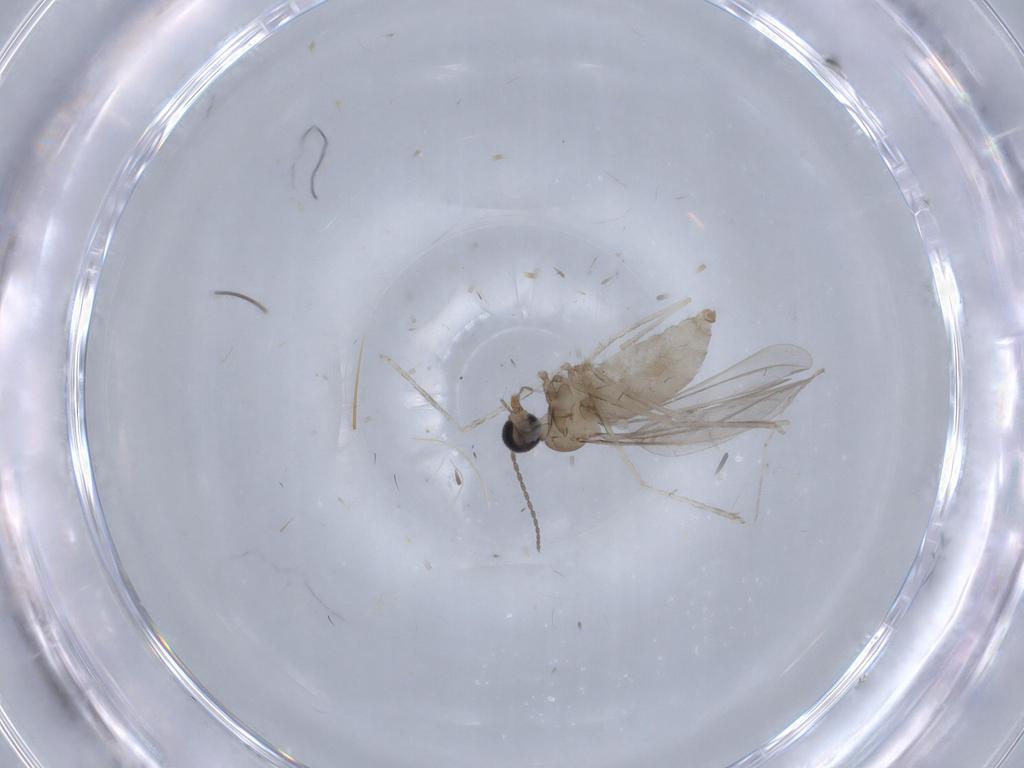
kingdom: Animalia
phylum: Arthropoda
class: Insecta
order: Diptera
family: Cecidomyiidae
